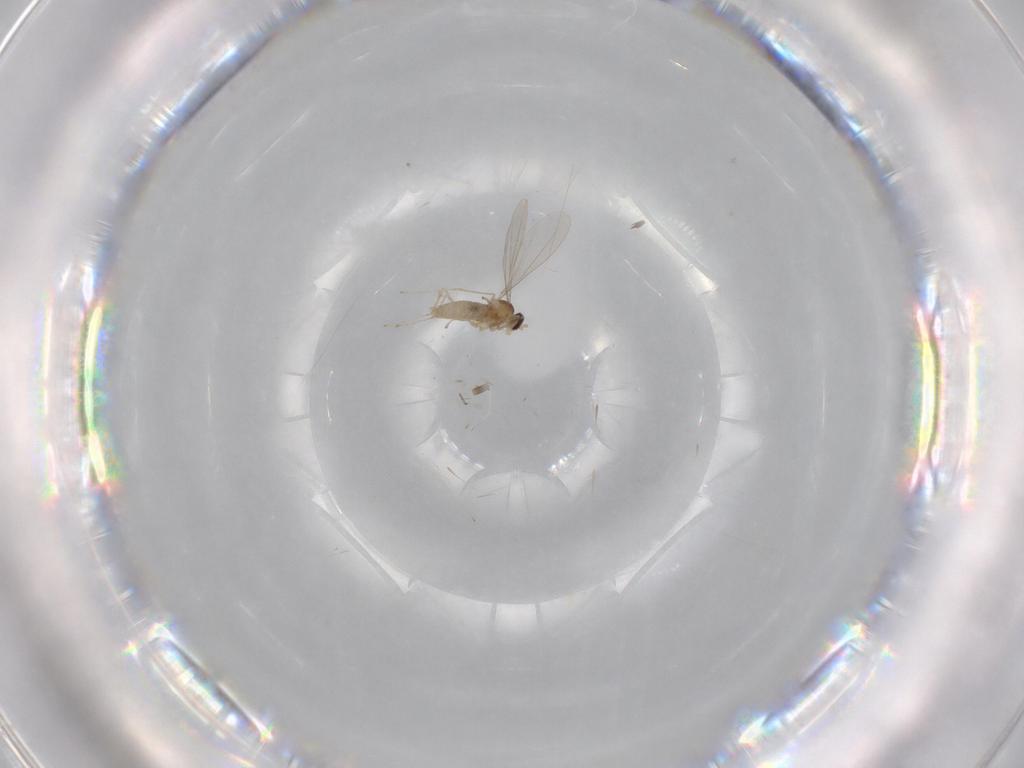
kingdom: Animalia
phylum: Arthropoda
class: Insecta
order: Diptera
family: Cecidomyiidae
